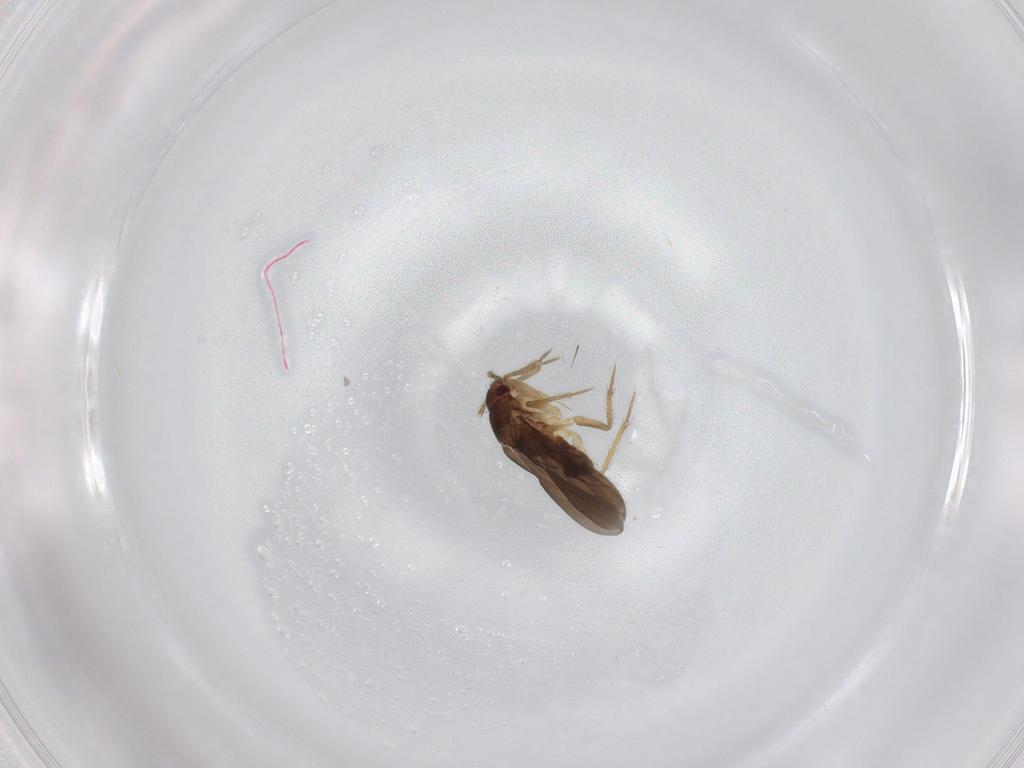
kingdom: Animalia
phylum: Arthropoda
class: Insecta
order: Hemiptera
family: Ceratocombidae
